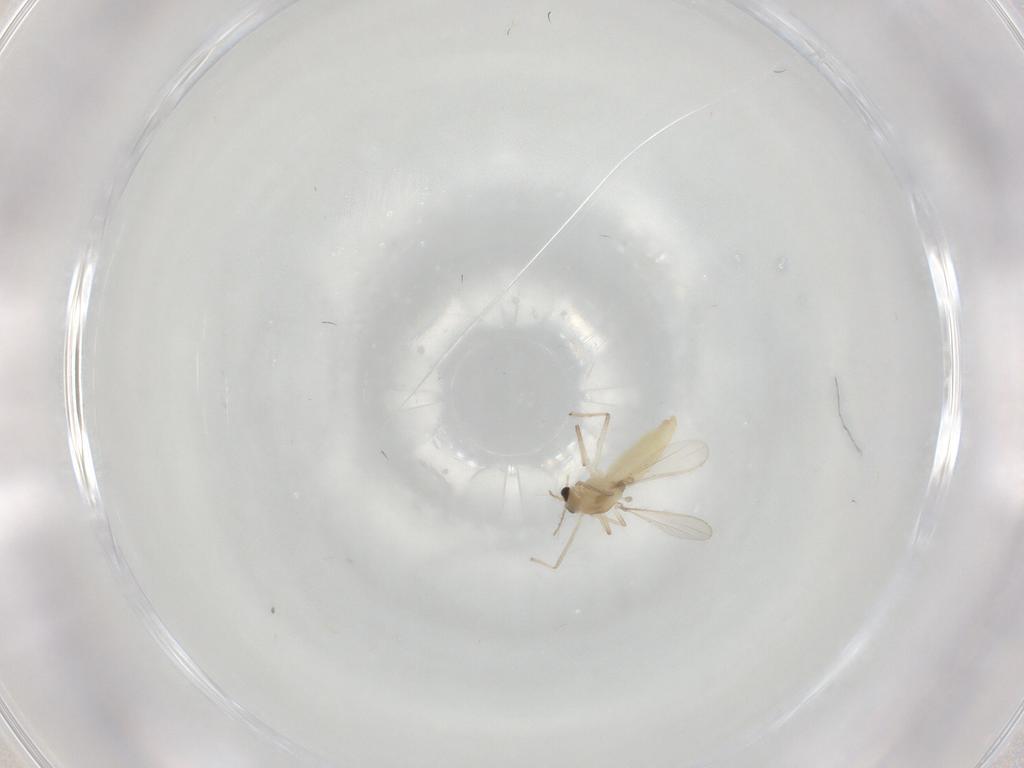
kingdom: Animalia
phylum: Arthropoda
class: Insecta
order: Diptera
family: Chironomidae
